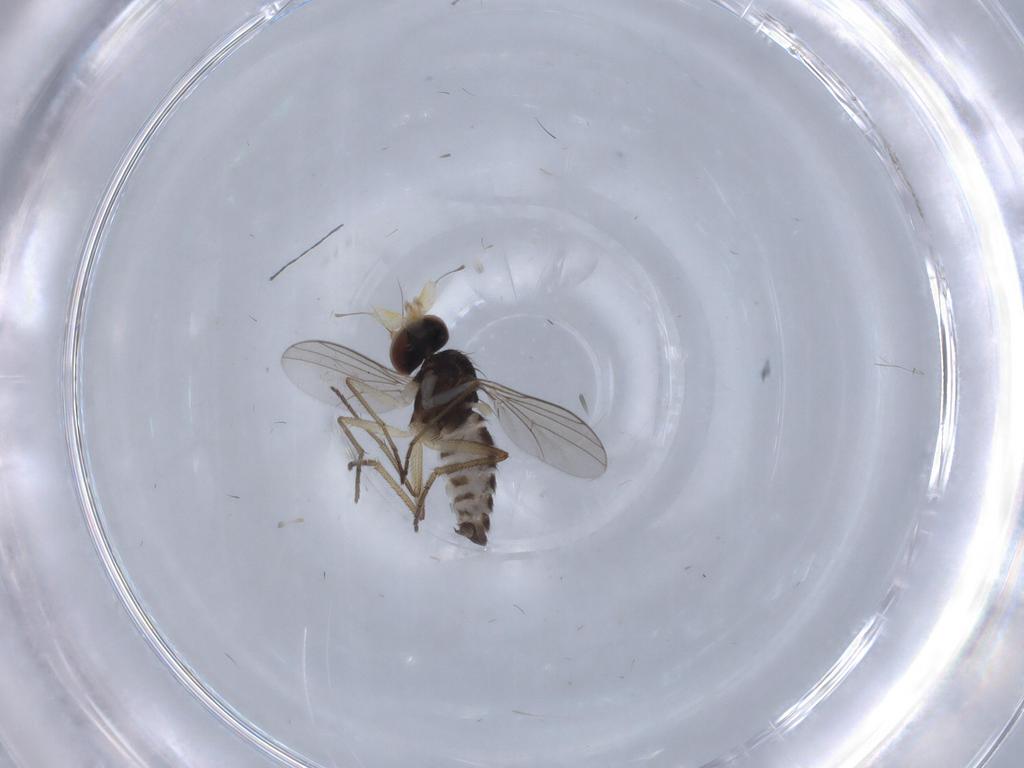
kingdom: Animalia
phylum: Arthropoda
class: Insecta
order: Diptera
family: Dolichopodidae
